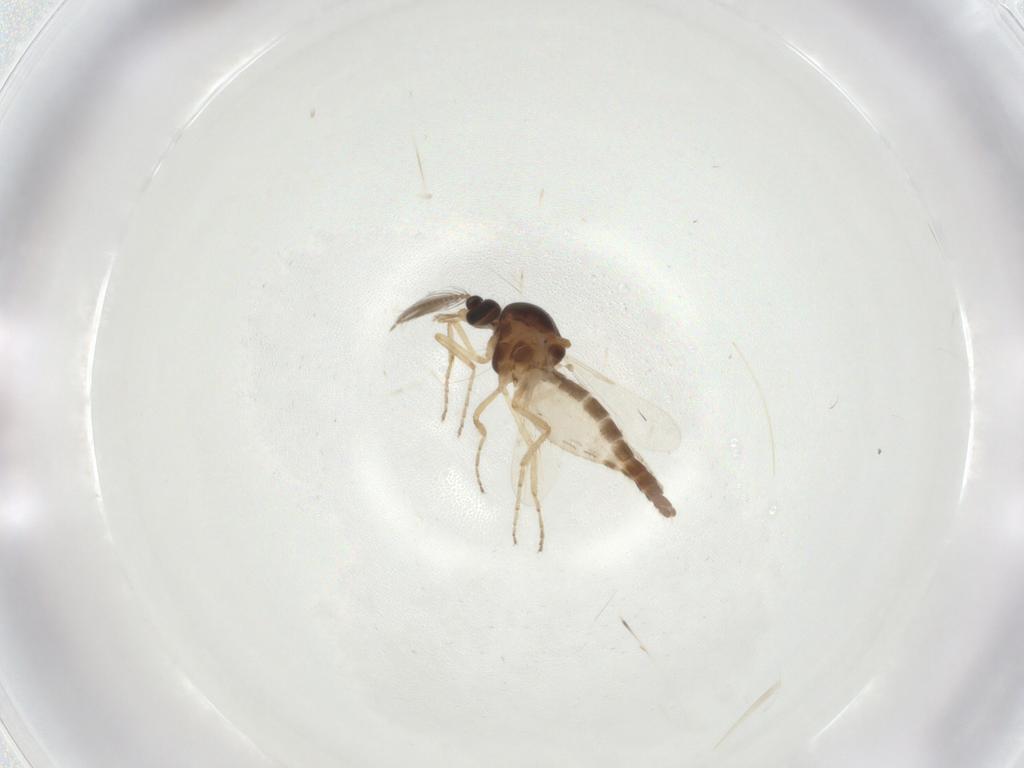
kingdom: Animalia
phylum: Arthropoda
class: Insecta
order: Diptera
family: Ceratopogonidae
